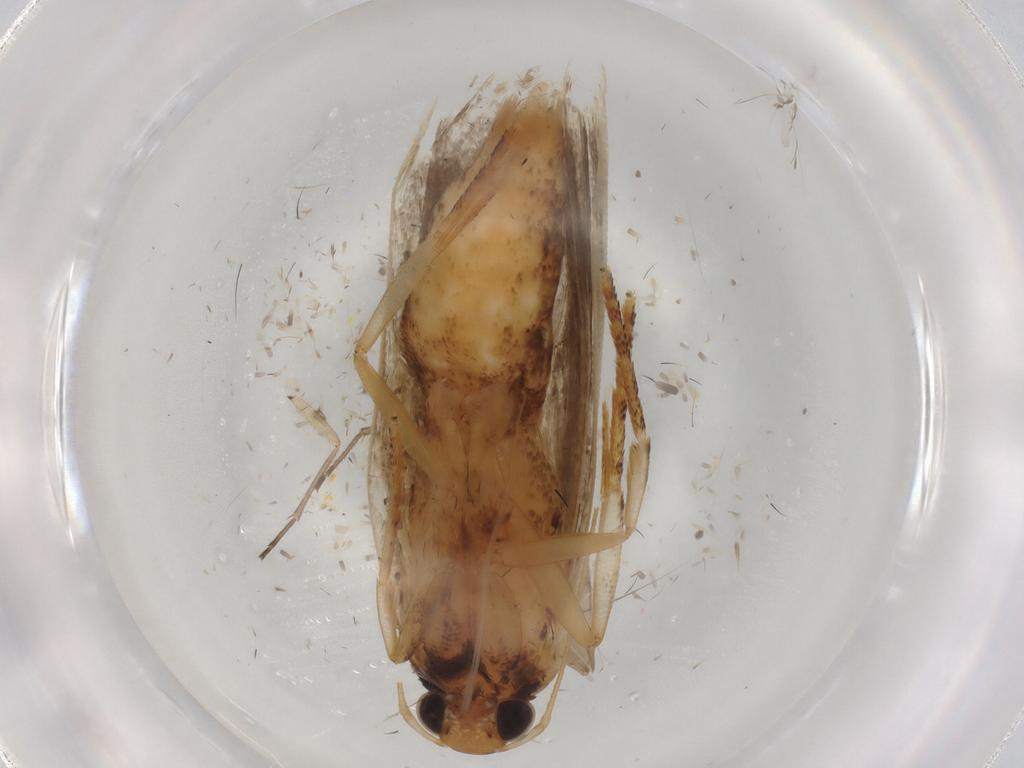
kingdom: Animalia
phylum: Arthropoda
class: Insecta
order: Lepidoptera
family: Gelechiidae
